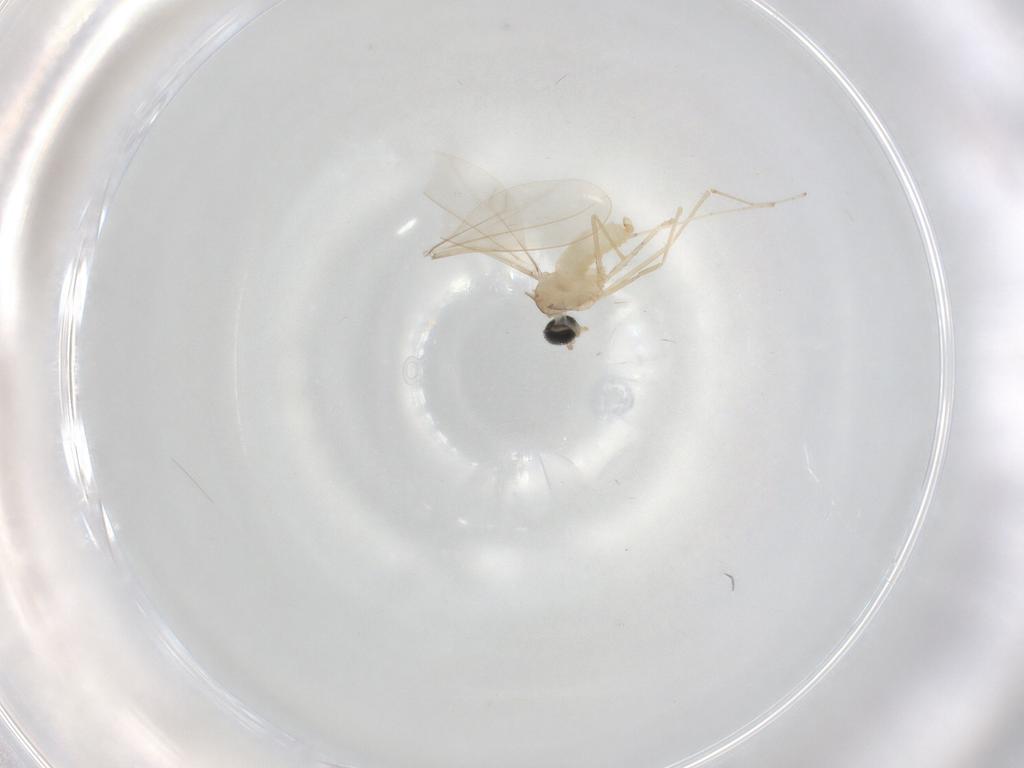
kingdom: Animalia
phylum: Arthropoda
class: Insecta
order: Diptera
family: Cecidomyiidae
